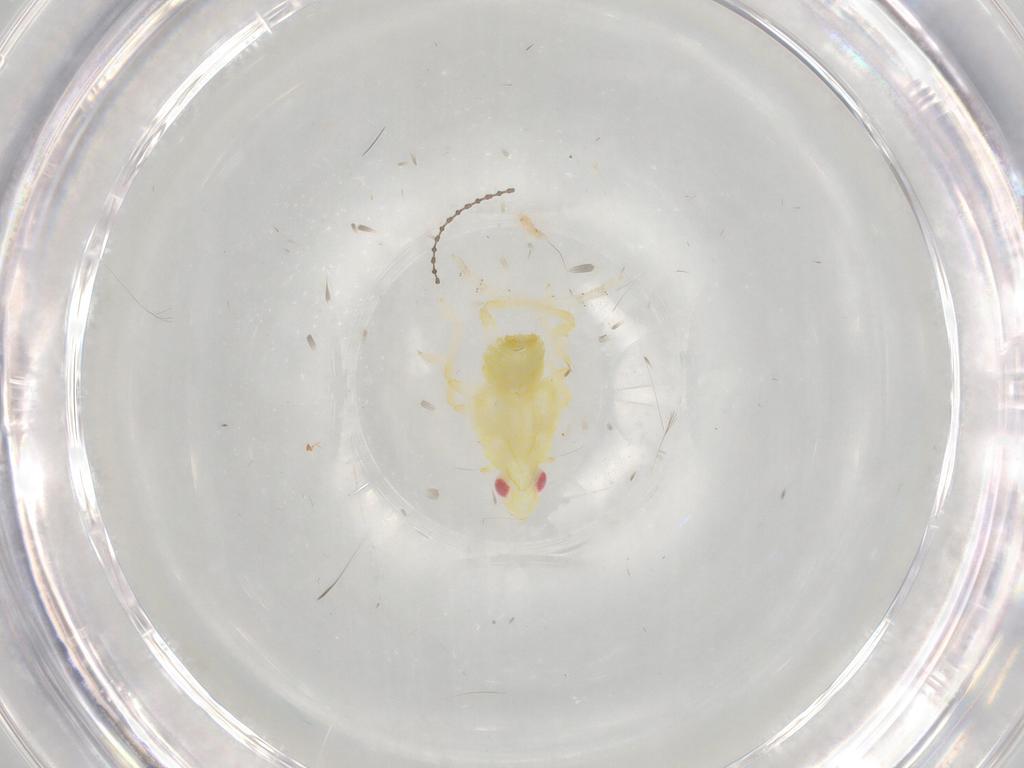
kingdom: Animalia
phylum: Arthropoda
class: Insecta
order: Hemiptera
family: Fulgoroidea_incertae_sedis
